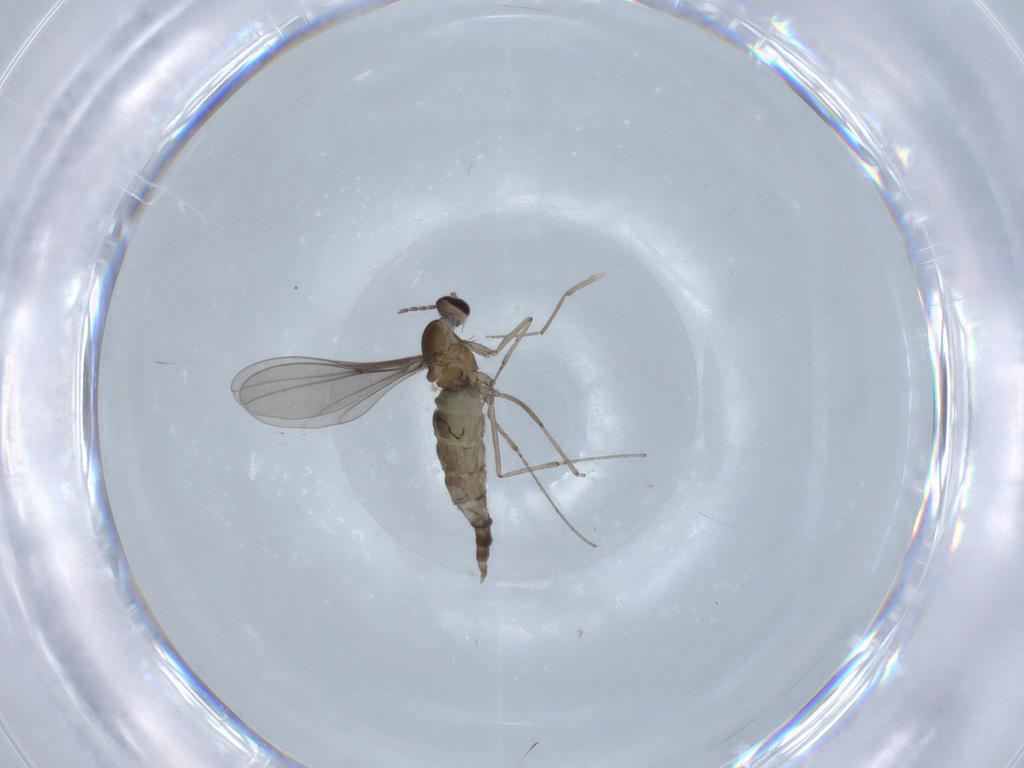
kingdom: Animalia
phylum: Arthropoda
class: Insecta
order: Diptera
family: Cecidomyiidae
